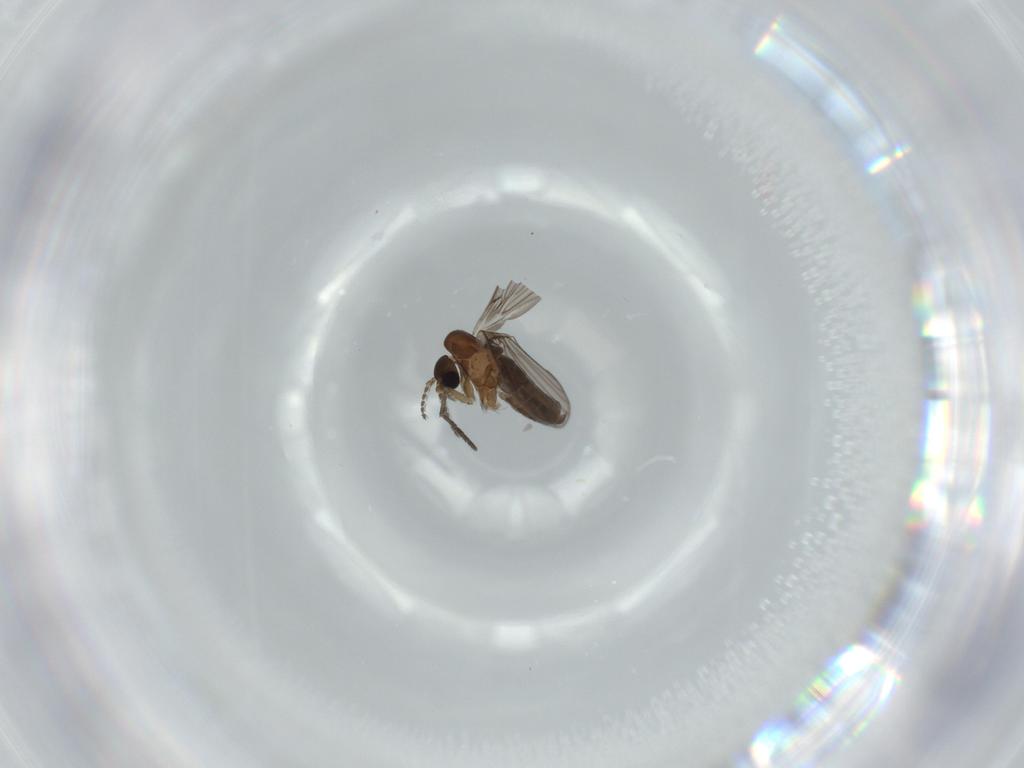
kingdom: Animalia
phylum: Arthropoda
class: Insecta
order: Diptera
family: Psychodidae
